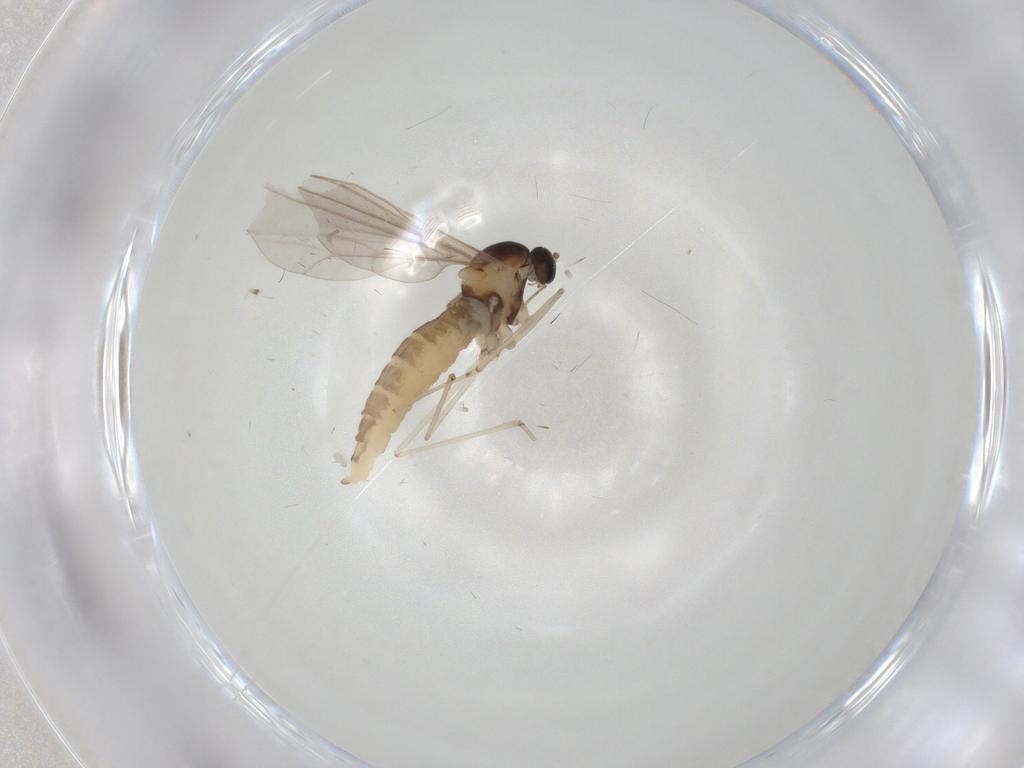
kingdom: Animalia
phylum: Arthropoda
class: Insecta
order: Diptera
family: Cecidomyiidae
